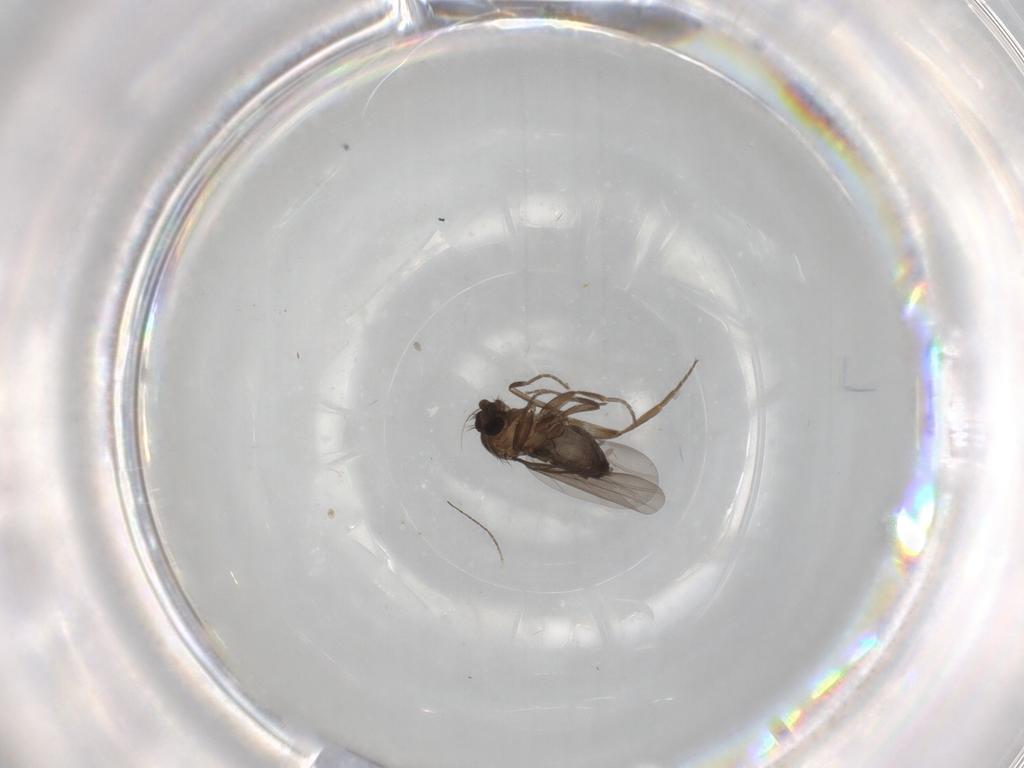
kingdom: Animalia
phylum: Arthropoda
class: Insecta
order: Diptera
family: Phoridae
